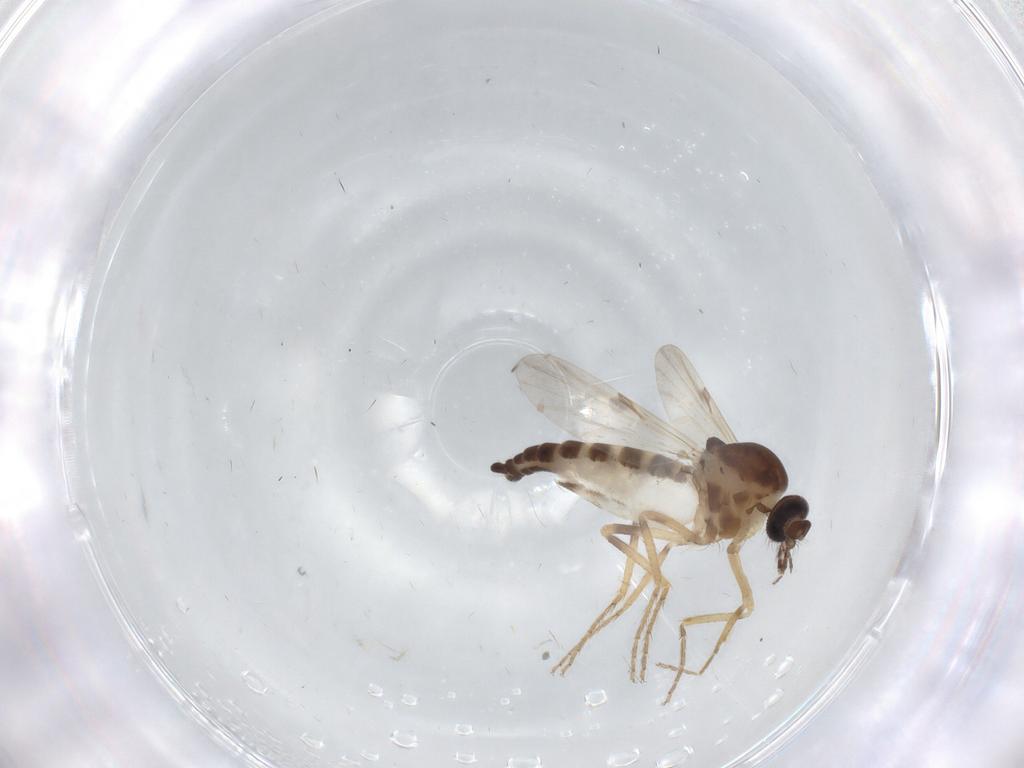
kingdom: Animalia
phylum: Arthropoda
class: Insecta
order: Diptera
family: Ceratopogonidae
